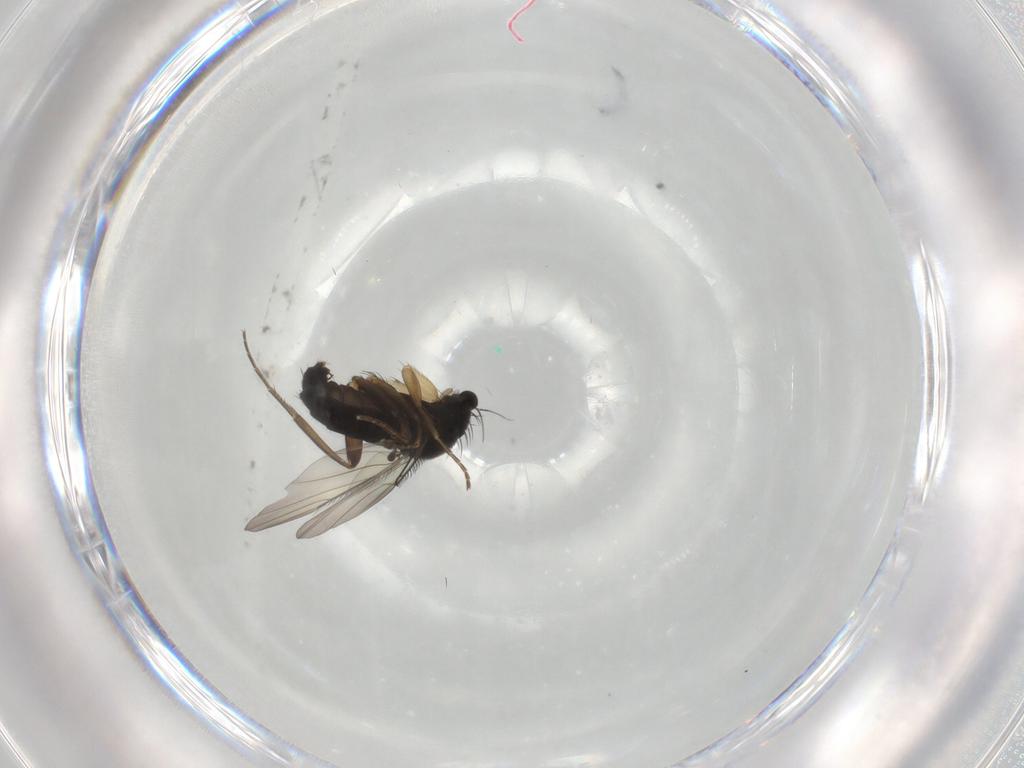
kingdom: Animalia
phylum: Arthropoda
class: Insecta
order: Diptera
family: Phoridae
